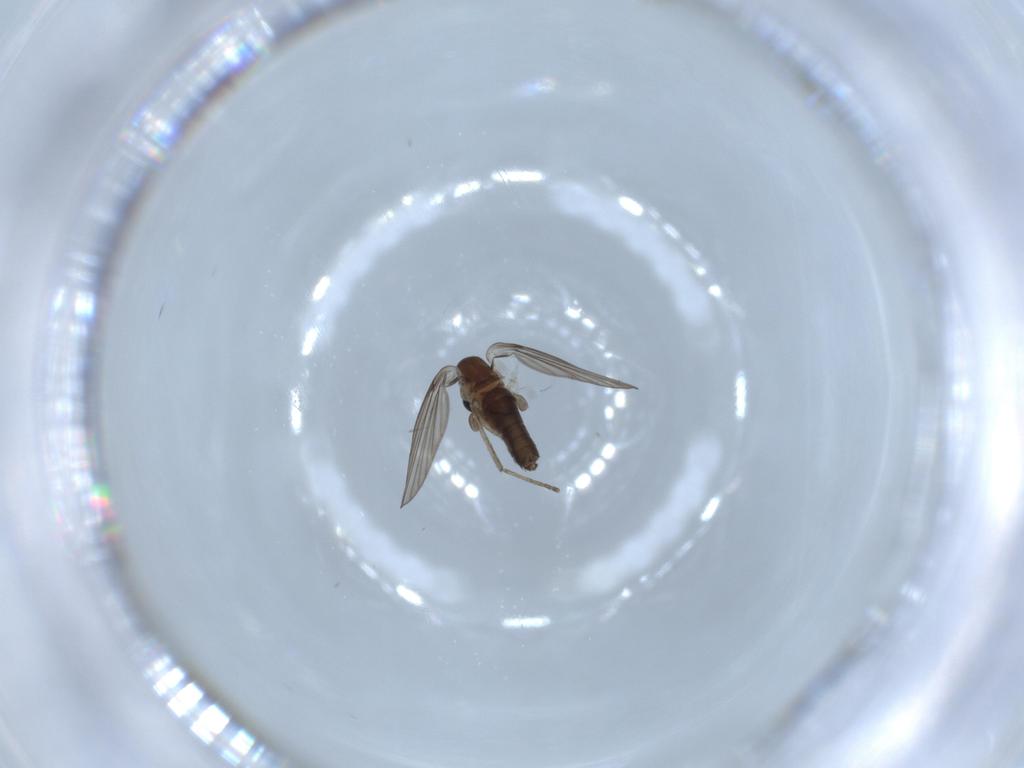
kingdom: Animalia
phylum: Arthropoda
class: Insecta
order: Diptera
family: Psychodidae
